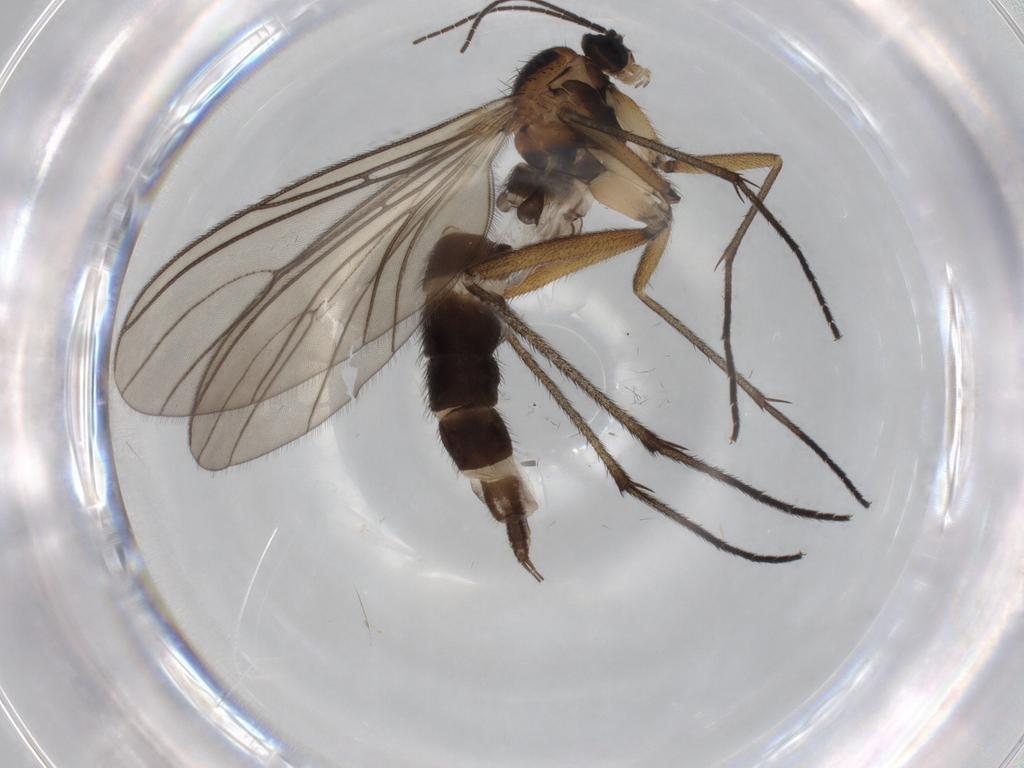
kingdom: Animalia
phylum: Arthropoda
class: Insecta
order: Diptera
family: Sciaridae
